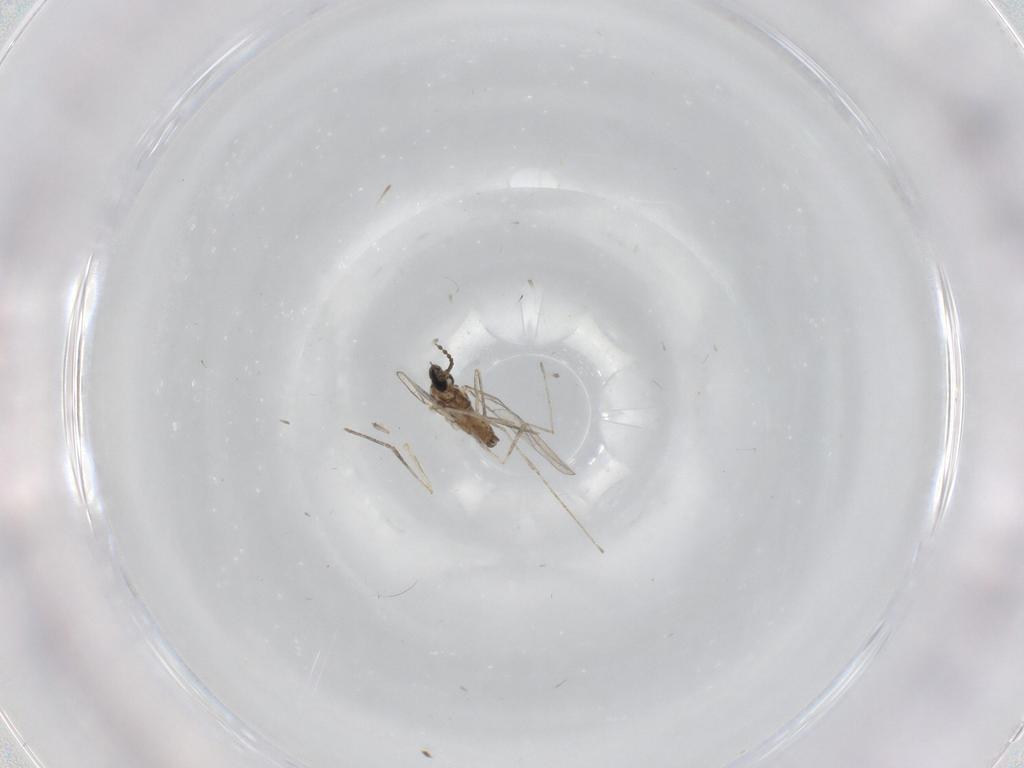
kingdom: Animalia
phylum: Arthropoda
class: Insecta
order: Diptera
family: Cecidomyiidae
